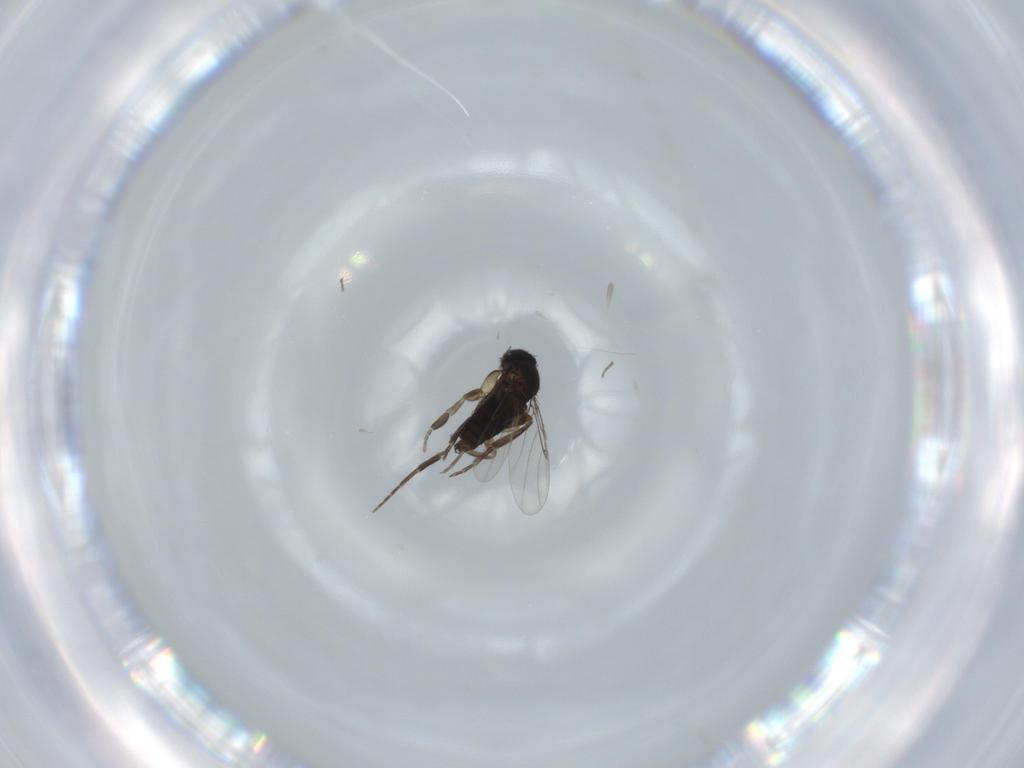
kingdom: Animalia
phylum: Arthropoda
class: Insecta
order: Diptera
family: Phoridae
